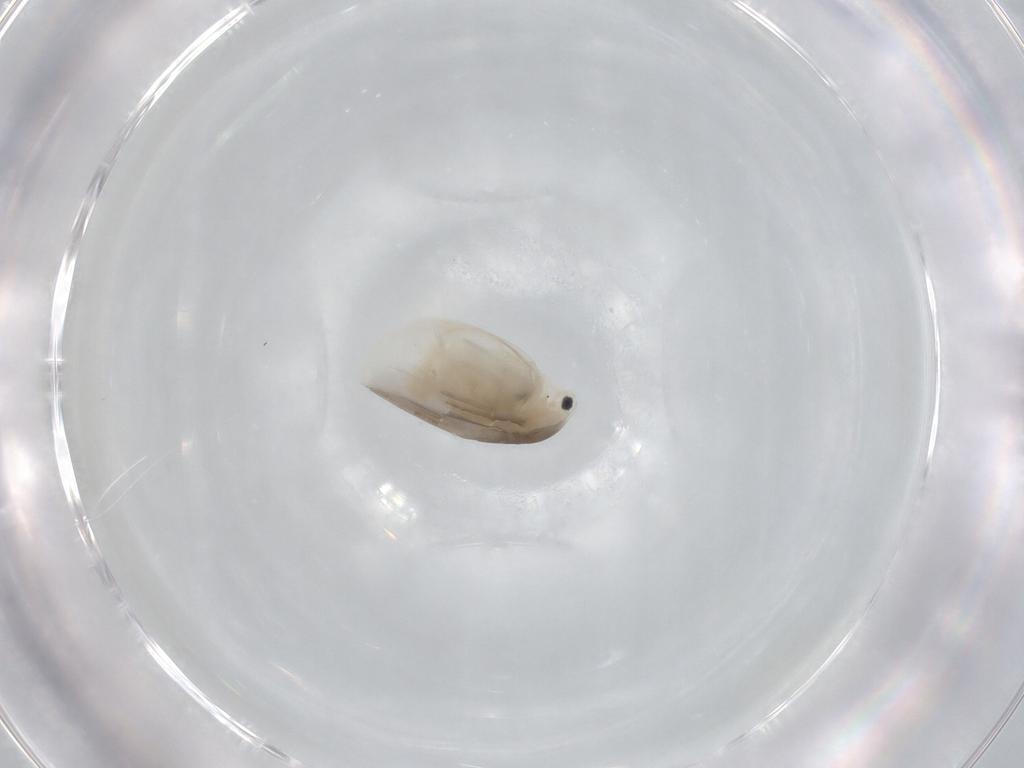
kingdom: Animalia
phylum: Arthropoda
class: Branchiopoda
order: Diplostraca
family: Daphniidae
